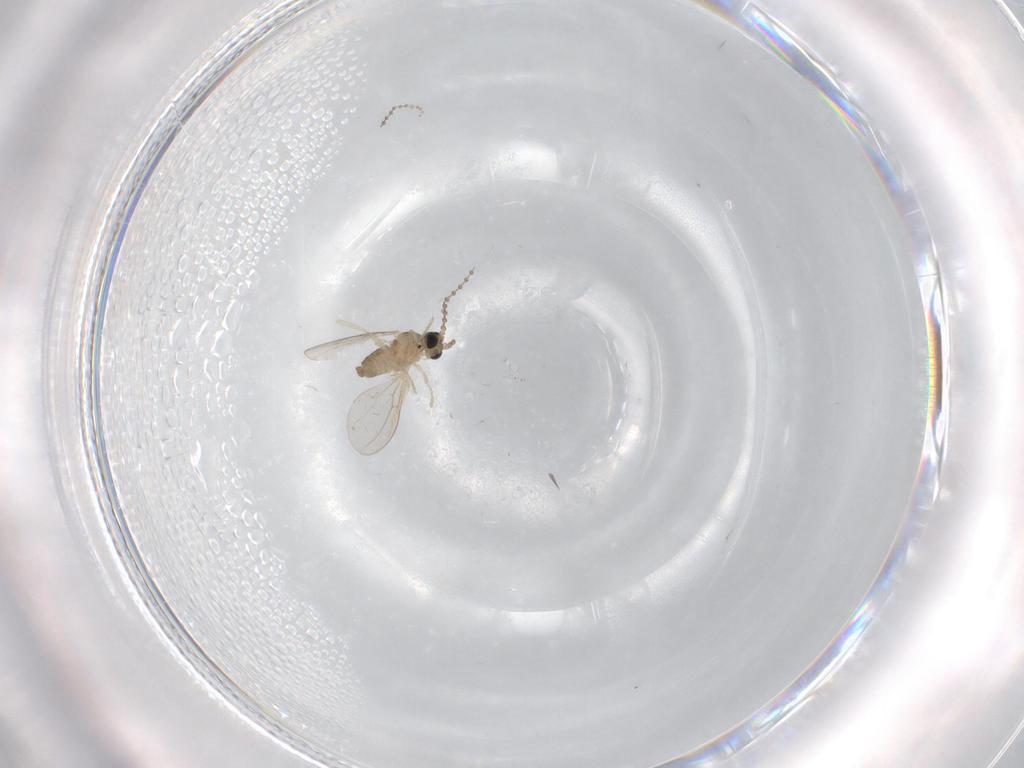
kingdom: Animalia
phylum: Arthropoda
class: Insecta
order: Diptera
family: Cecidomyiidae
